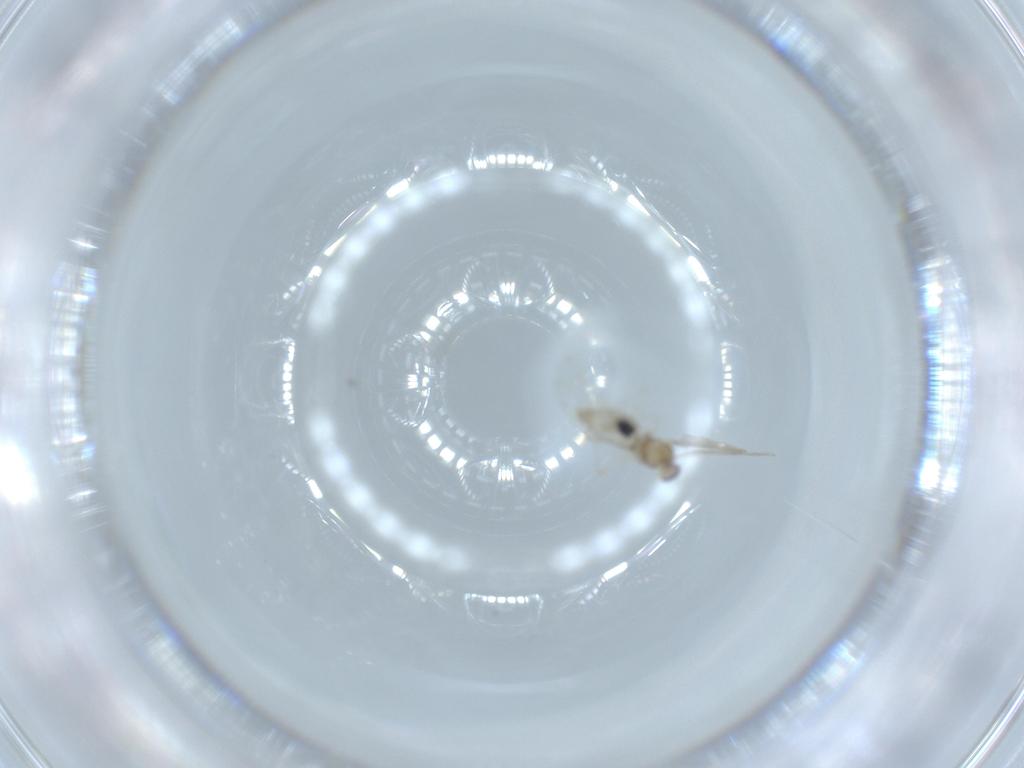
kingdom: Animalia
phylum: Arthropoda
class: Insecta
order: Diptera
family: Cecidomyiidae
